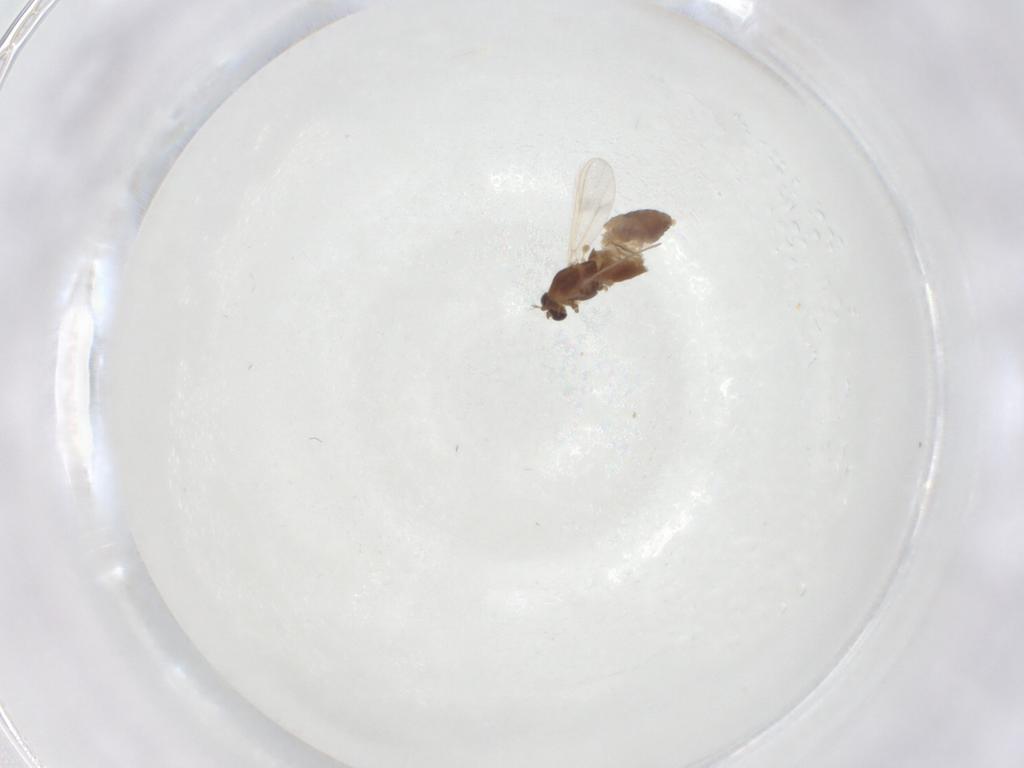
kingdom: Animalia
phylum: Arthropoda
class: Insecta
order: Diptera
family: Chironomidae
